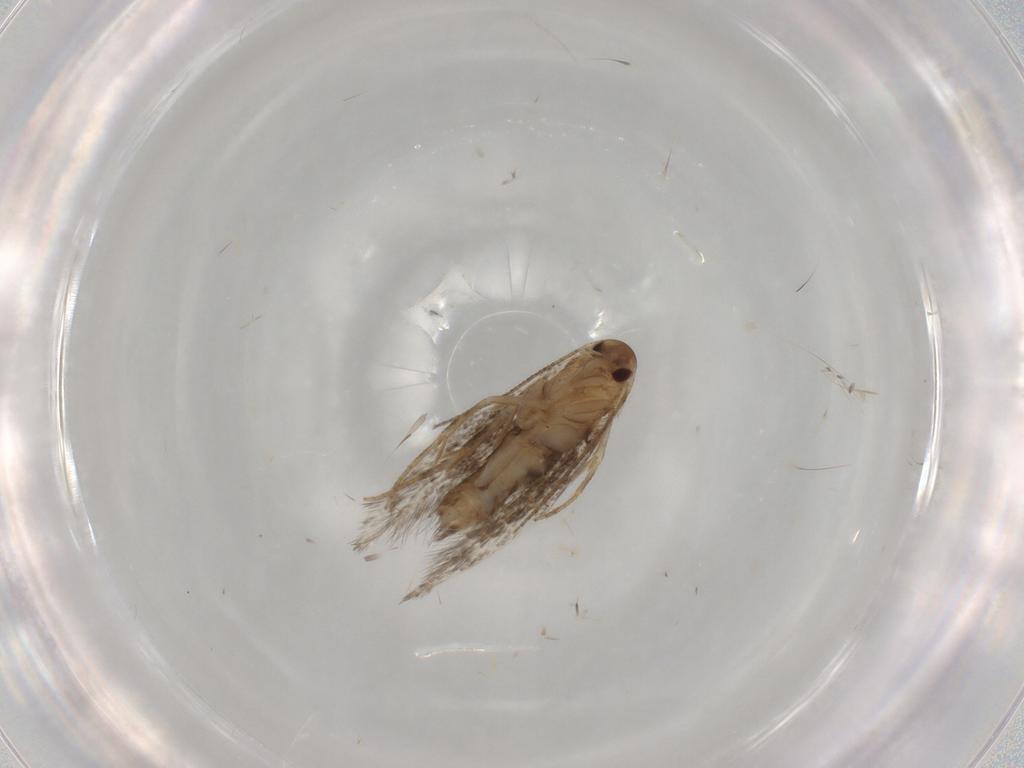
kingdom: Animalia
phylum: Arthropoda
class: Insecta
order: Lepidoptera
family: Elachistidae
